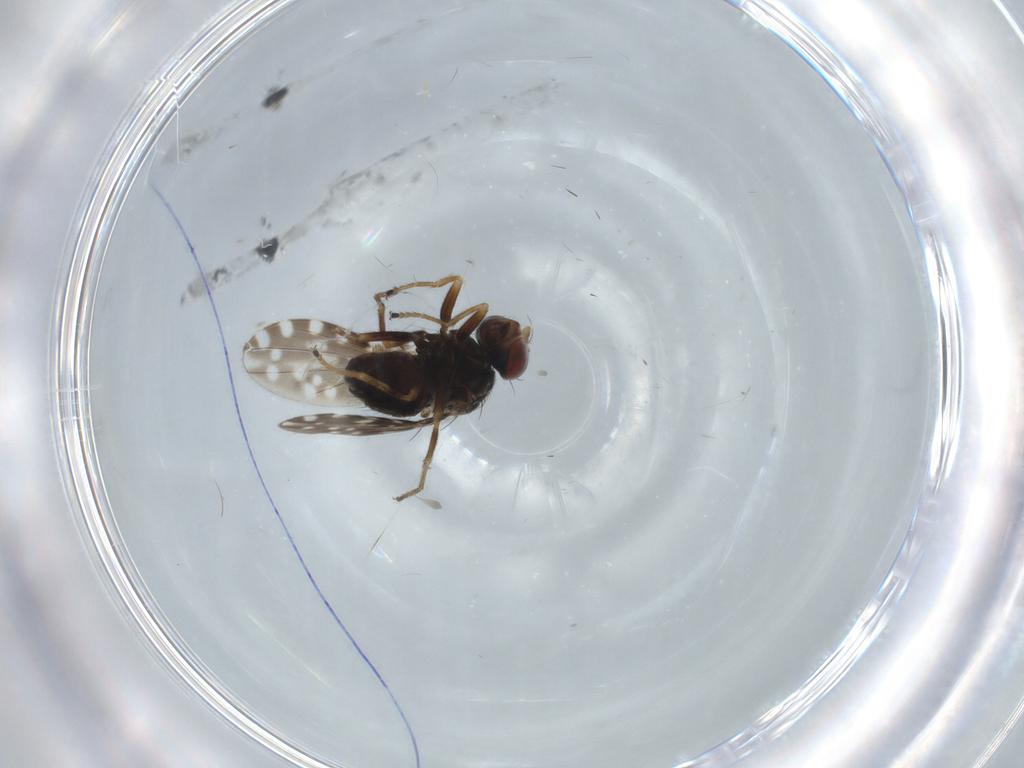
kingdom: Animalia
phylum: Arthropoda
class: Insecta
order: Diptera
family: Ephydridae
